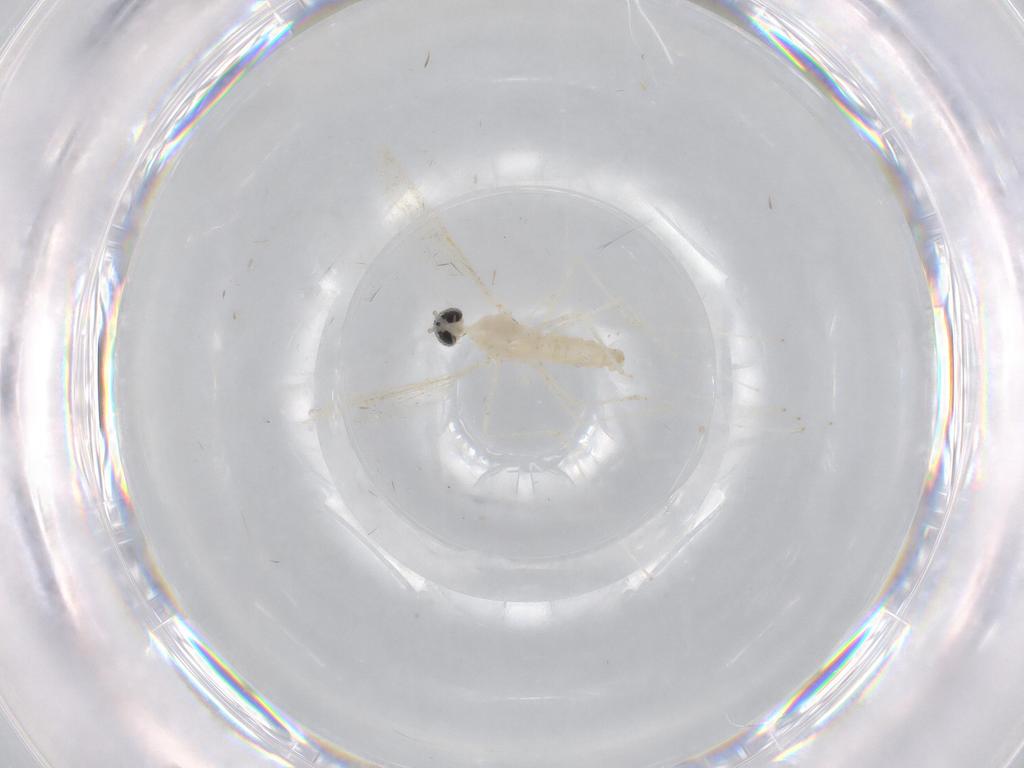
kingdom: Animalia
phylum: Arthropoda
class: Insecta
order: Diptera
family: Cecidomyiidae
